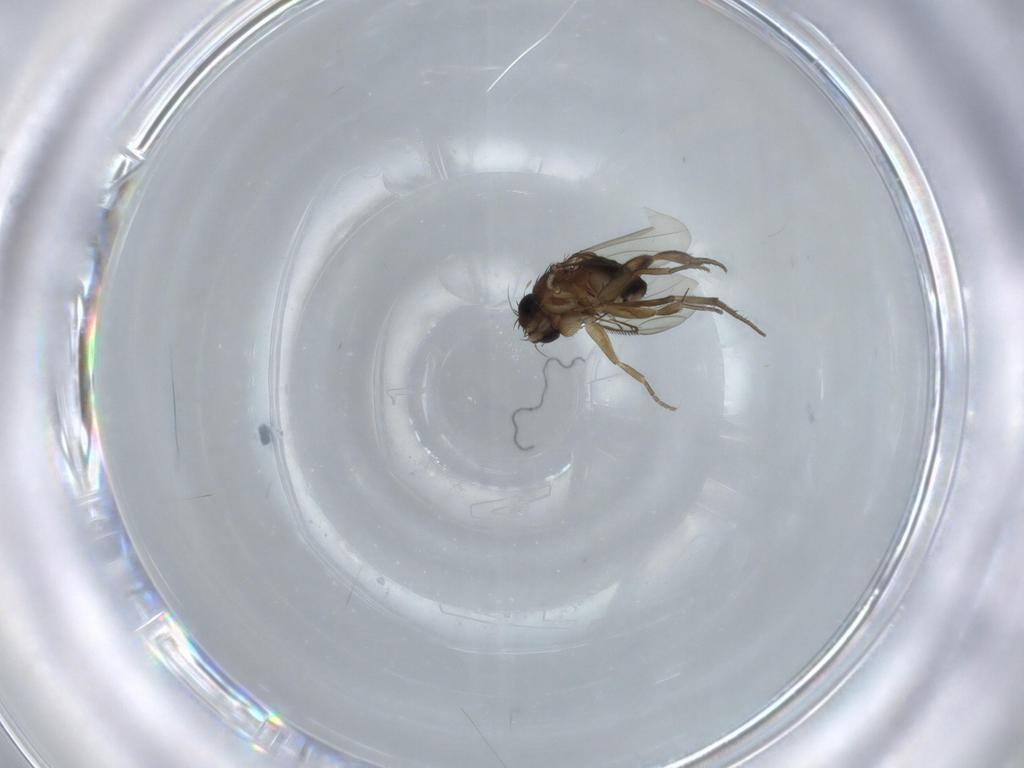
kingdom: Animalia
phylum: Arthropoda
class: Insecta
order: Diptera
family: Phoridae
